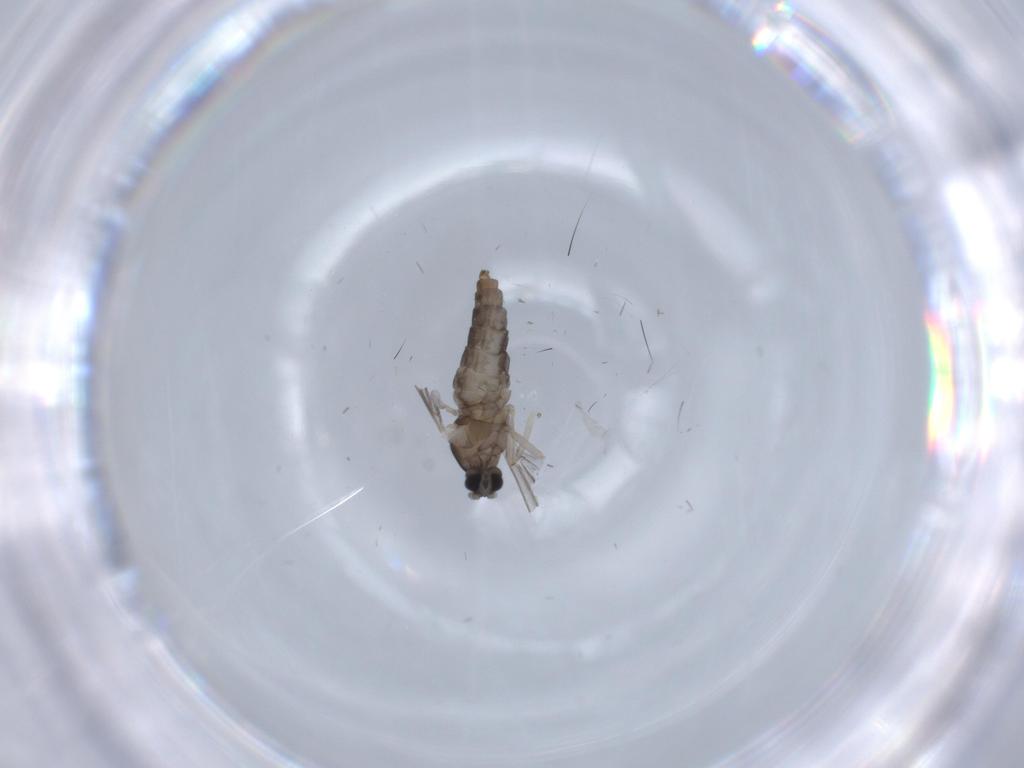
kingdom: Animalia
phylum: Arthropoda
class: Insecta
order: Diptera
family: Cecidomyiidae
